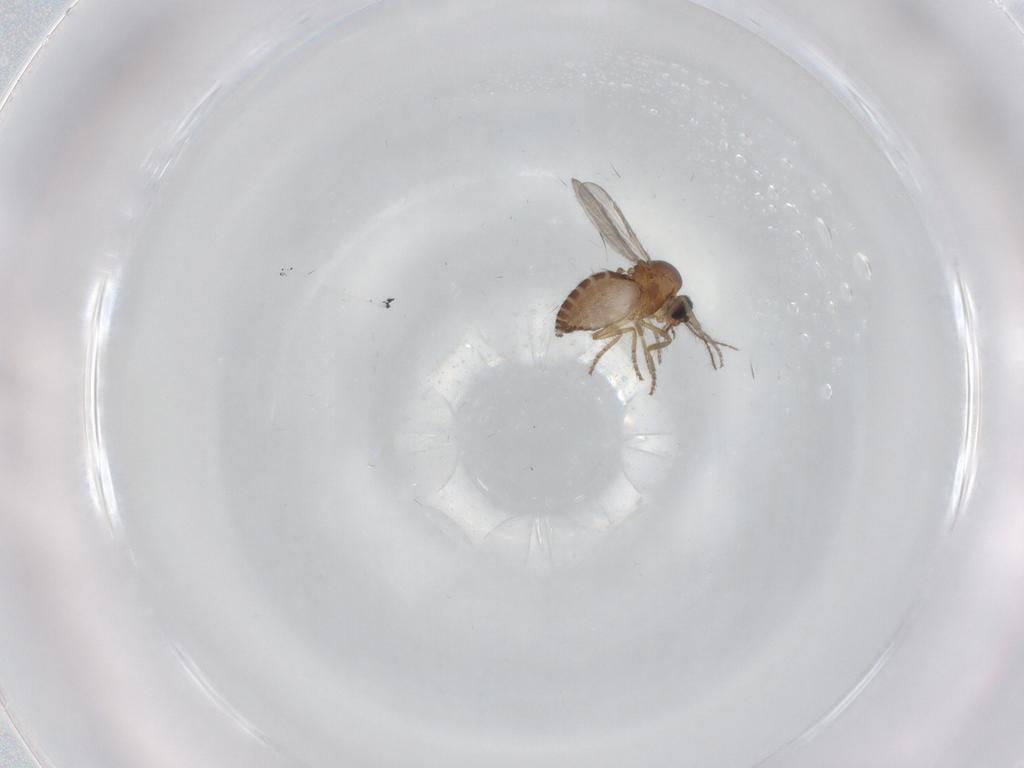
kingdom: Animalia
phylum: Arthropoda
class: Insecta
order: Diptera
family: Ceratopogonidae
